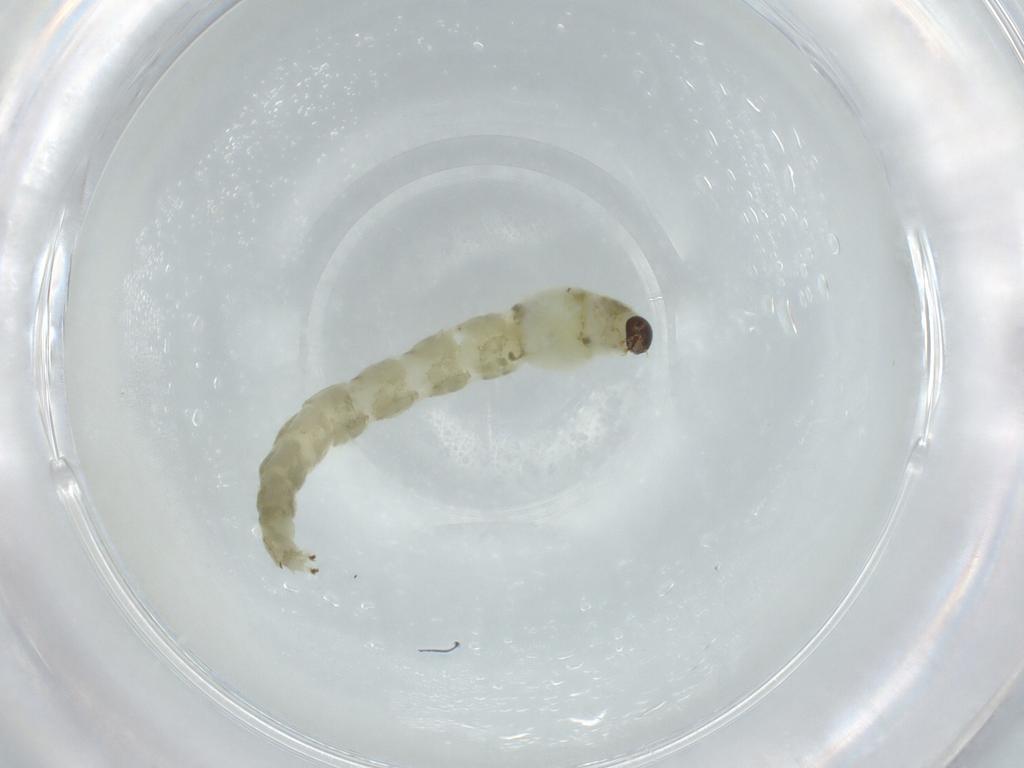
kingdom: Animalia
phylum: Arthropoda
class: Insecta
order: Diptera
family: Chironomidae
